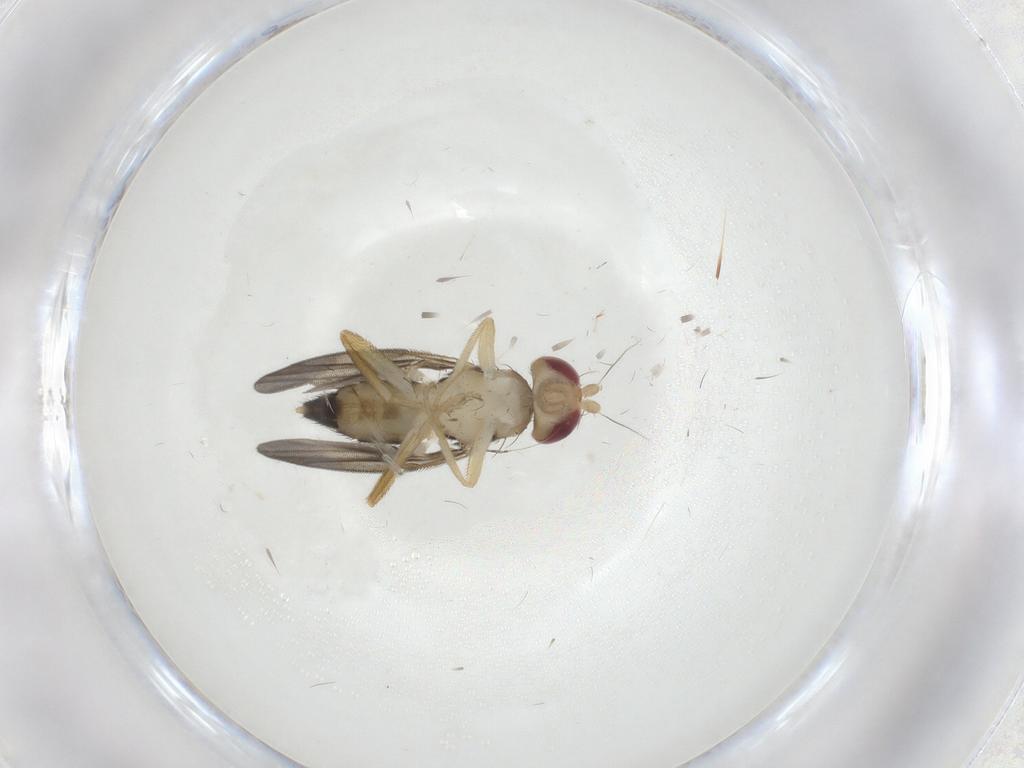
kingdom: Animalia
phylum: Arthropoda
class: Insecta
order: Diptera
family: Clusiidae
